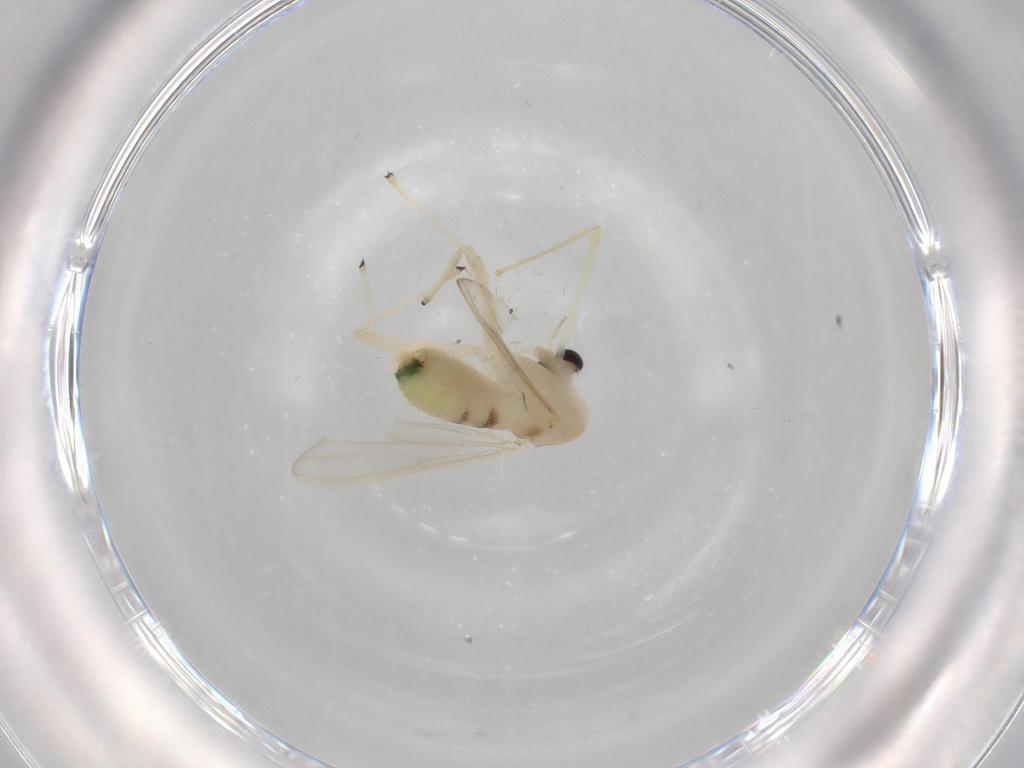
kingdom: Animalia
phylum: Arthropoda
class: Insecta
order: Diptera
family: Chironomidae
